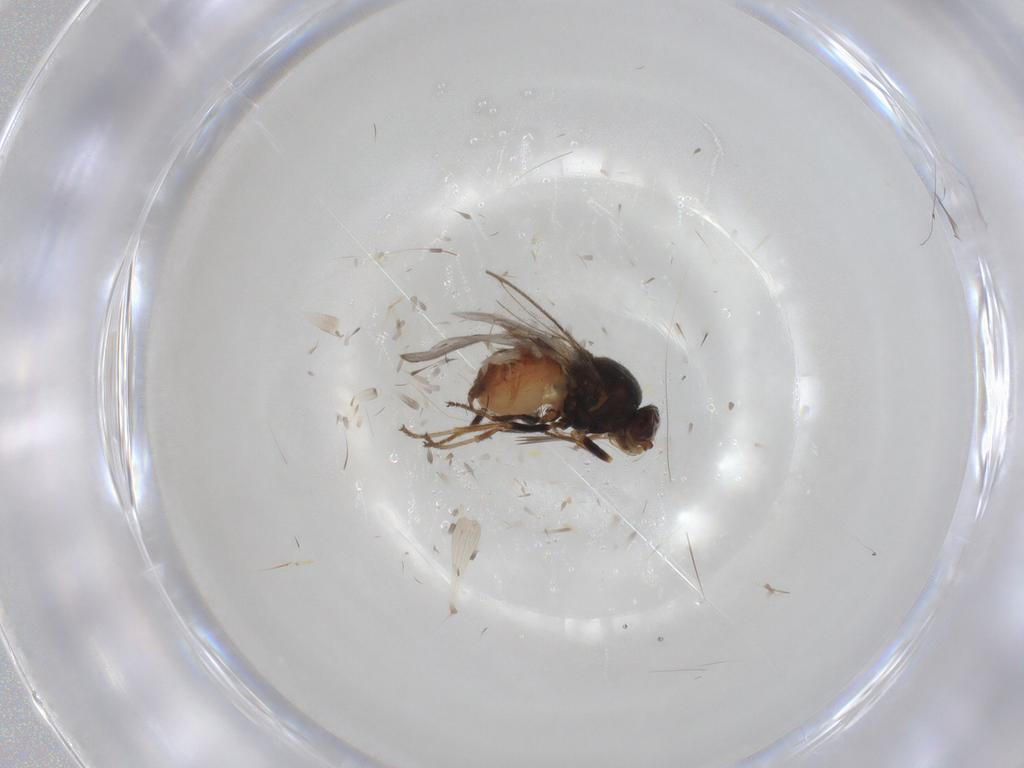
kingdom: Animalia
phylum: Arthropoda
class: Insecta
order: Diptera
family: Chloropidae
